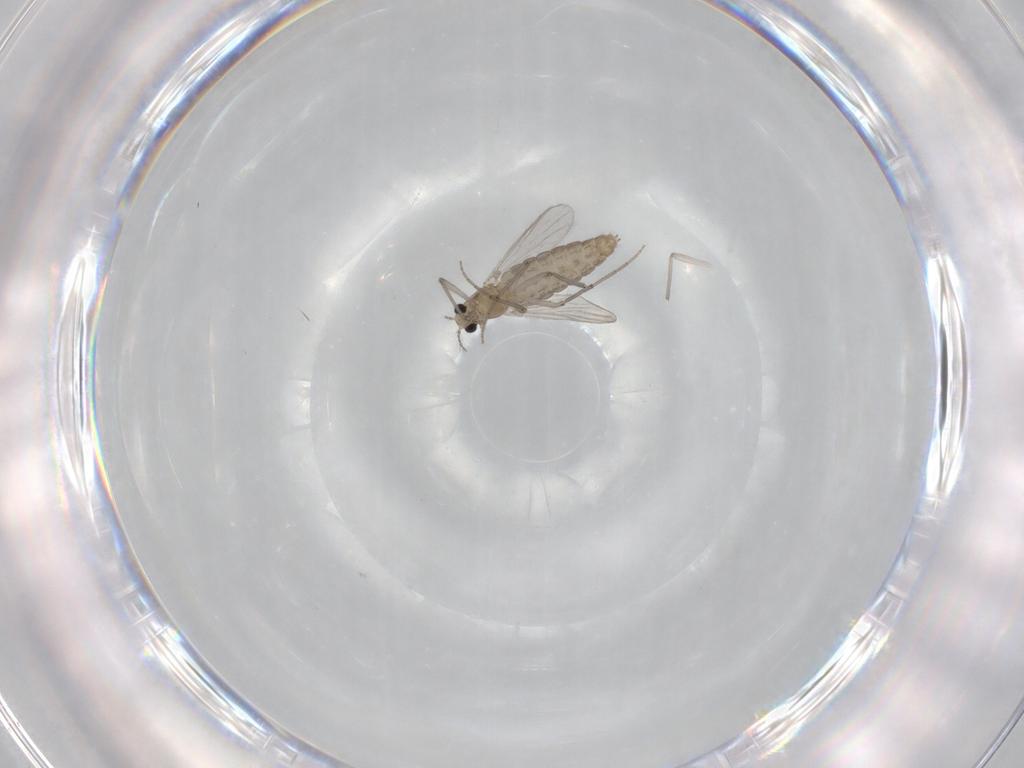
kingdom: Animalia
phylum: Arthropoda
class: Insecta
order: Diptera
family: Chironomidae
